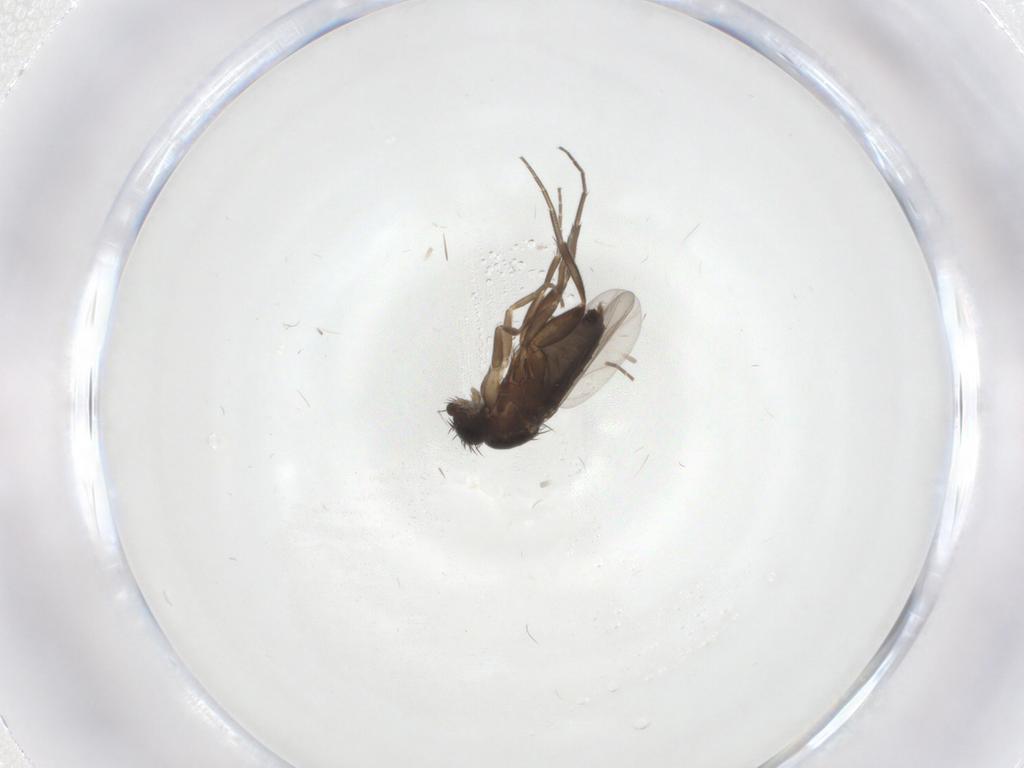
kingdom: Animalia
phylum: Arthropoda
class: Insecta
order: Diptera
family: Phoridae
